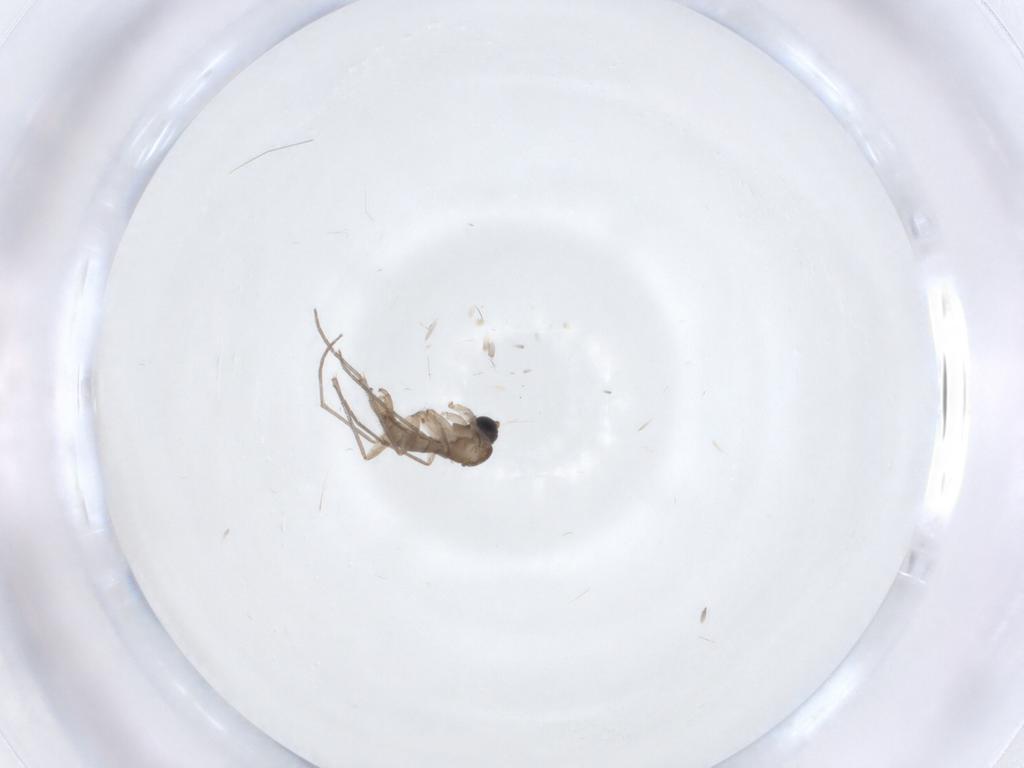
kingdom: Animalia
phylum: Arthropoda
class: Insecta
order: Diptera
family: Sciaridae
